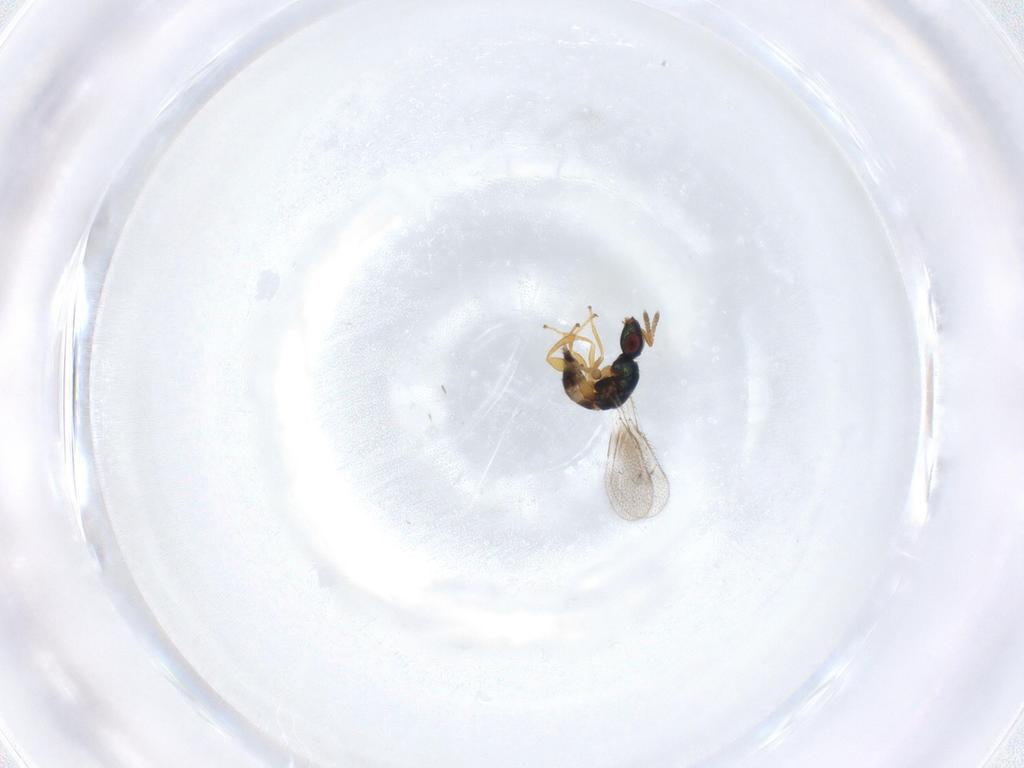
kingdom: Animalia
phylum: Arthropoda
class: Insecta
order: Hymenoptera
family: Torymidae
